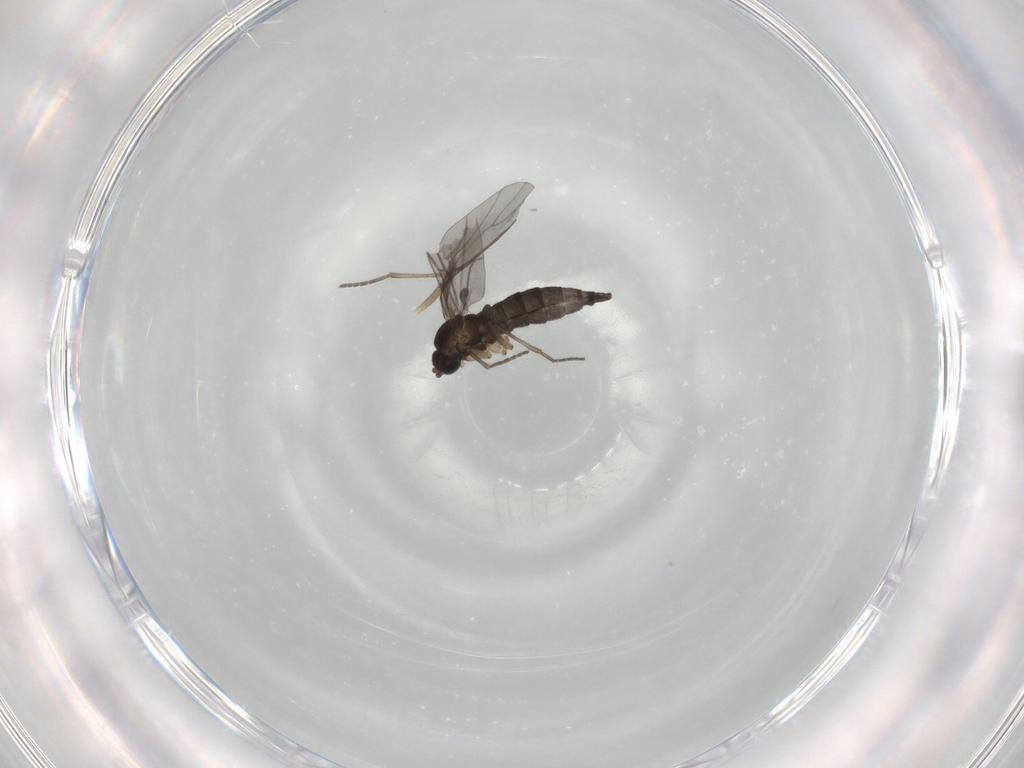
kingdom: Animalia
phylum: Arthropoda
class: Insecta
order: Diptera
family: Sciaridae
